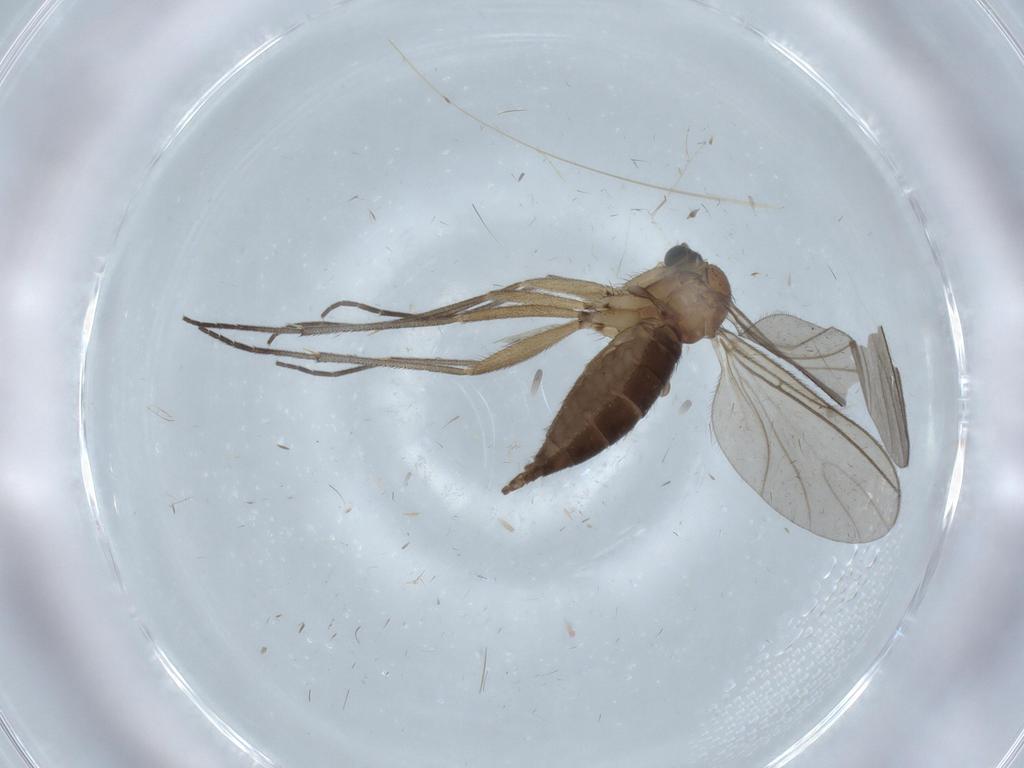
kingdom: Animalia
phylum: Arthropoda
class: Insecta
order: Diptera
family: Sciaridae
